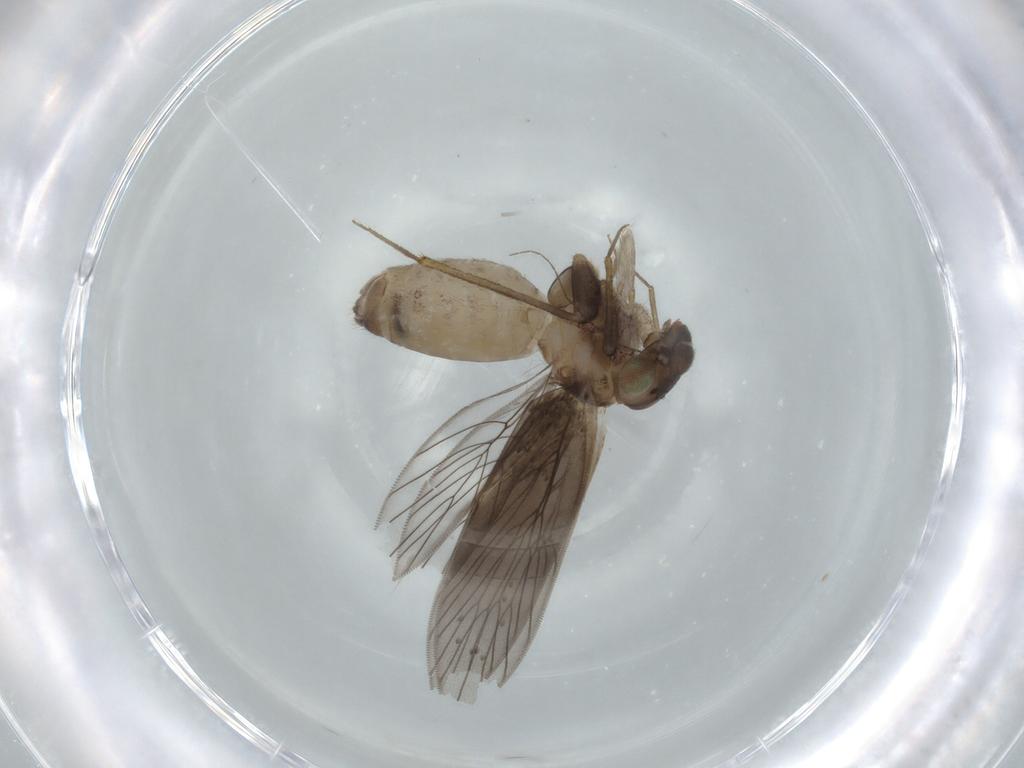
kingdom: Animalia
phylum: Arthropoda
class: Insecta
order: Psocodea
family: Lepidopsocidae
